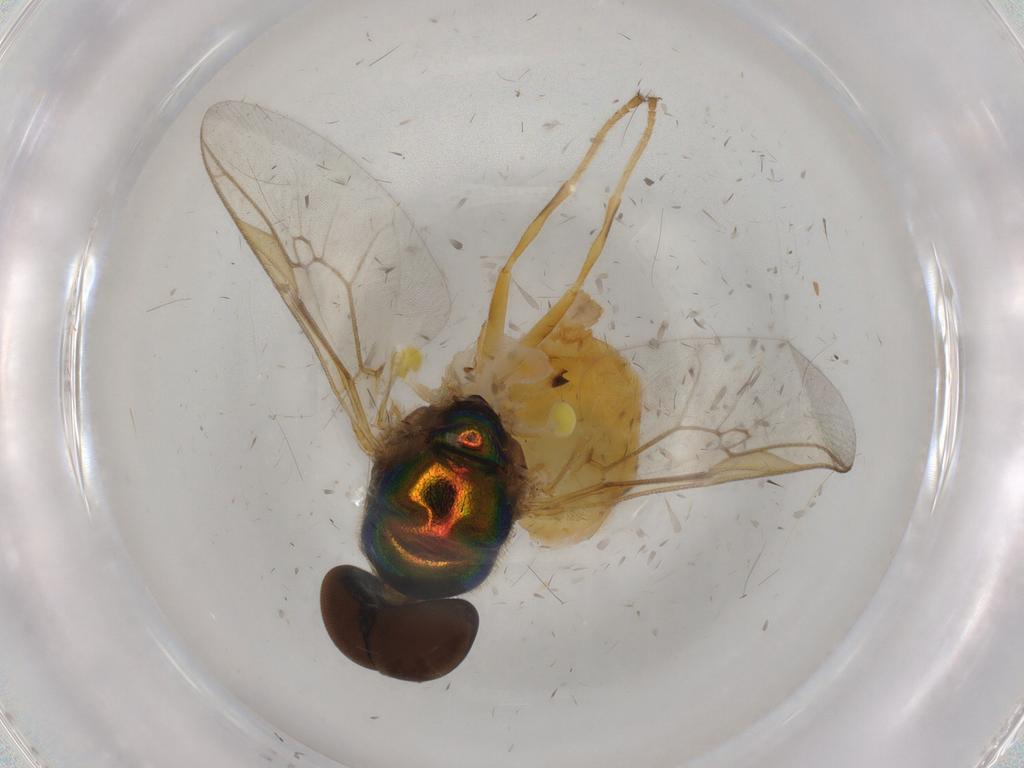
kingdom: Animalia
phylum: Arthropoda
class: Insecta
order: Diptera
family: Stratiomyidae
